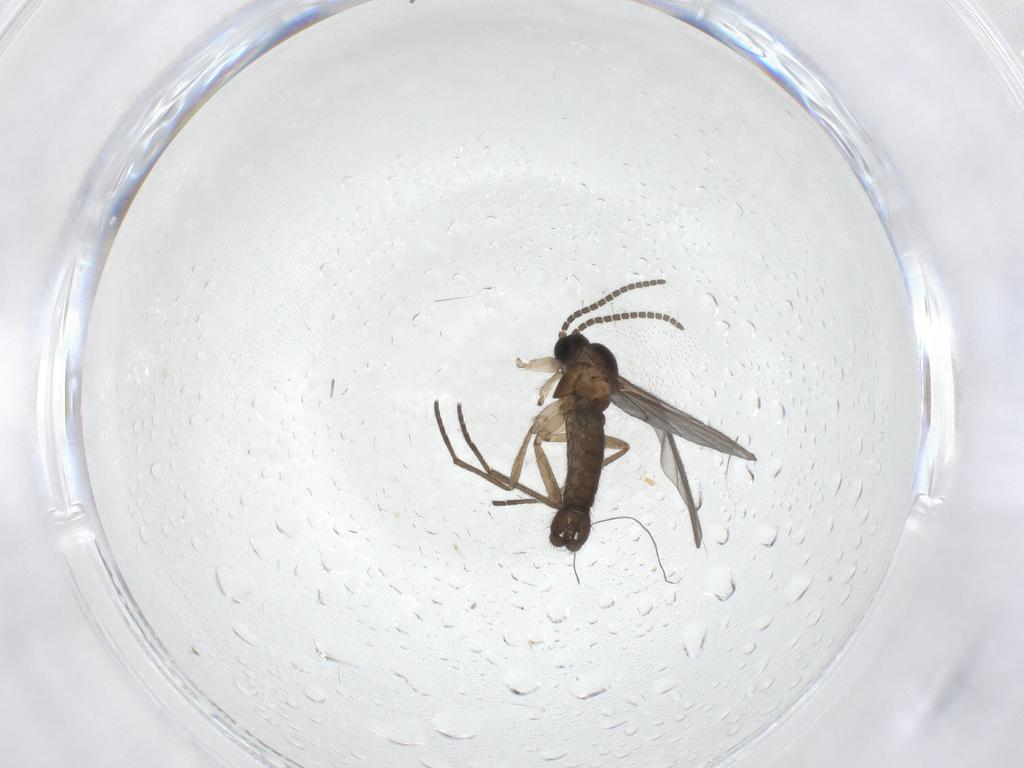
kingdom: Animalia
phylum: Arthropoda
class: Insecta
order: Diptera
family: Sciaridae
